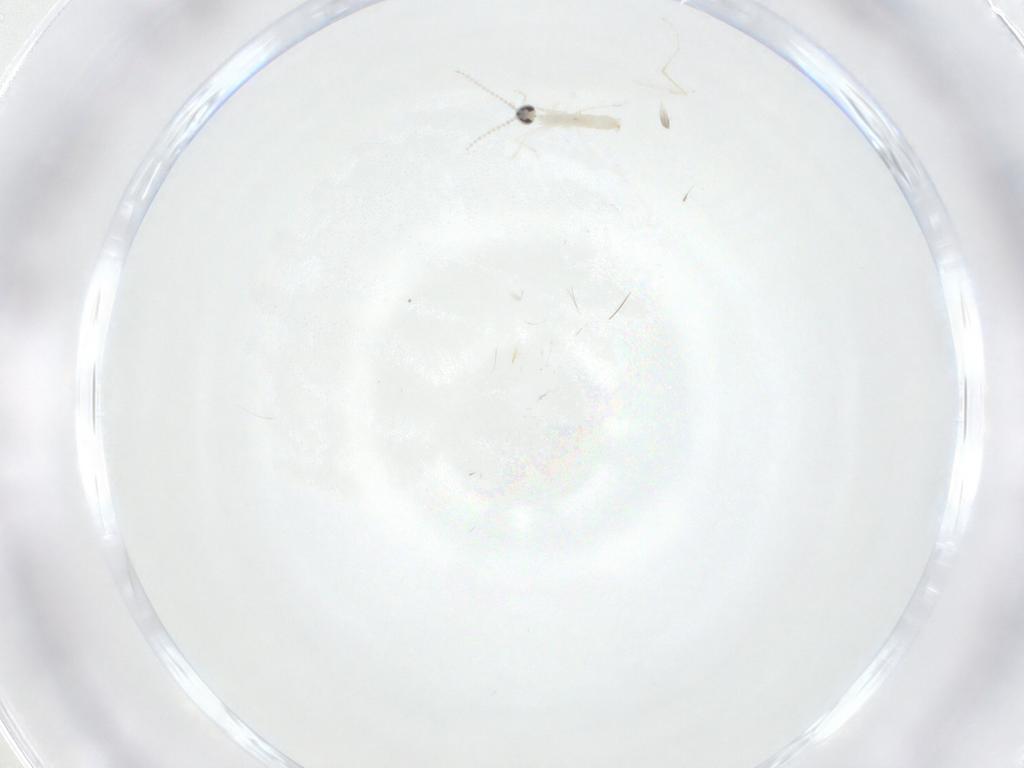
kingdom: Animalia
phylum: Arthropoda
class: Insecta
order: Diptera
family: Cecidomyiidae
